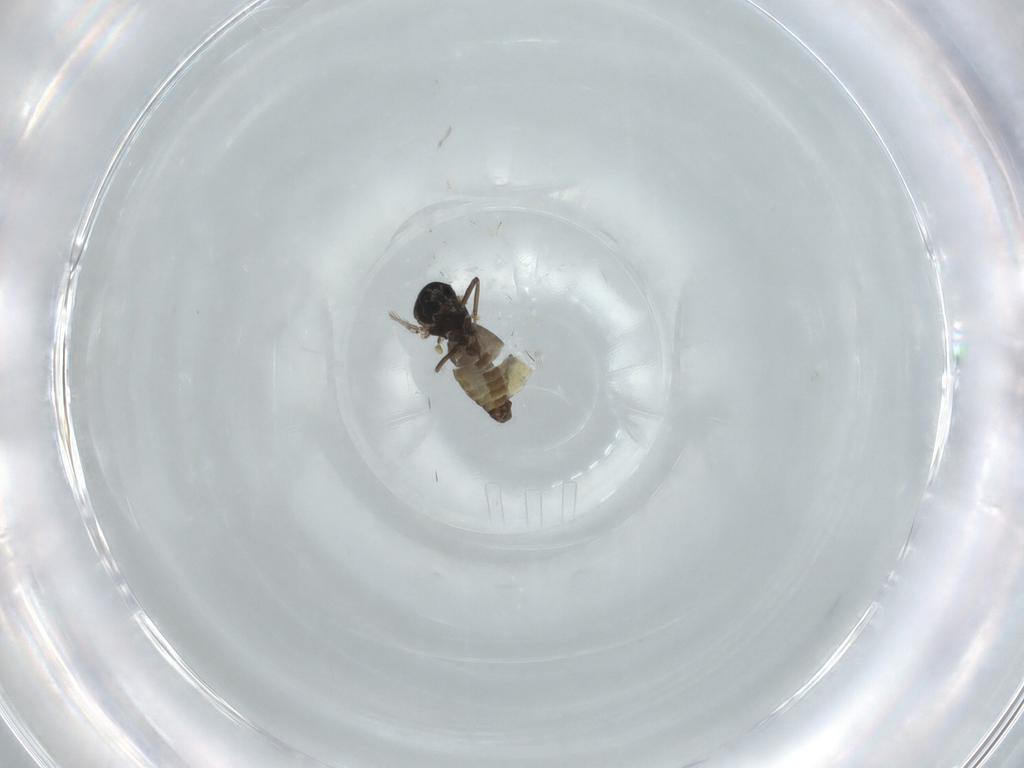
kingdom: Animalia
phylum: Arthropoda
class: Insecta
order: Diptera
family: Ceratopogonidae
